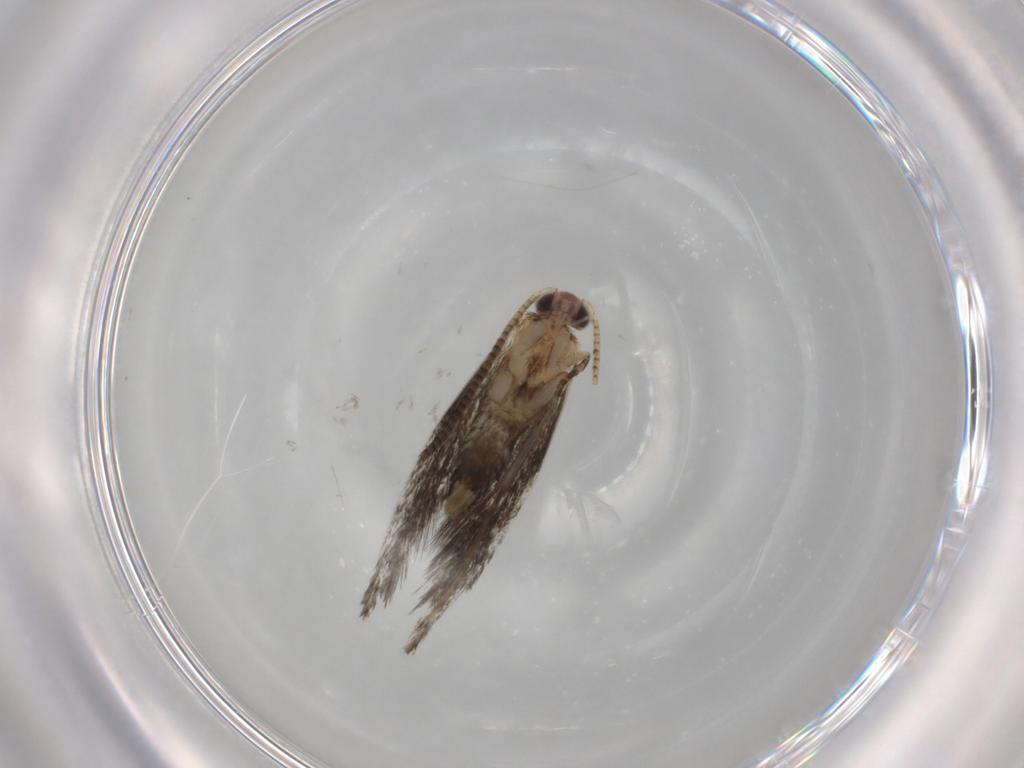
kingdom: Animalia
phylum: Arthropoda
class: Insecta
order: Lepidoptera
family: Tineidae
